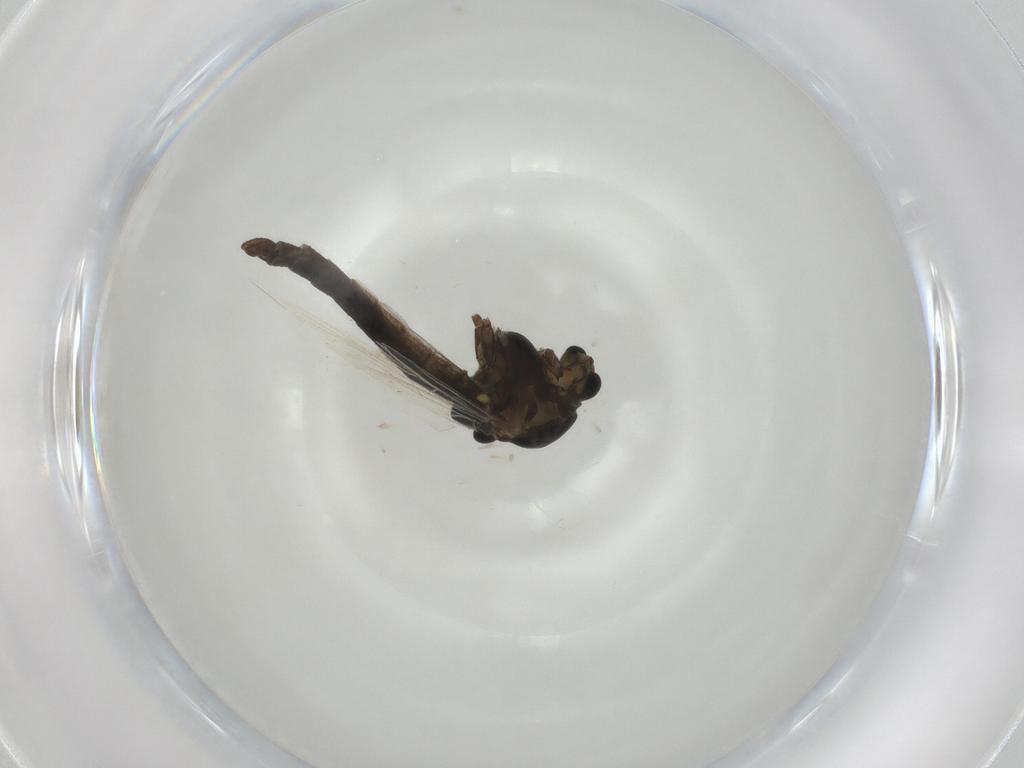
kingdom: Animalia
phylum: Arthropoda
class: Insecta
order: Diptera
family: Chironomidae
